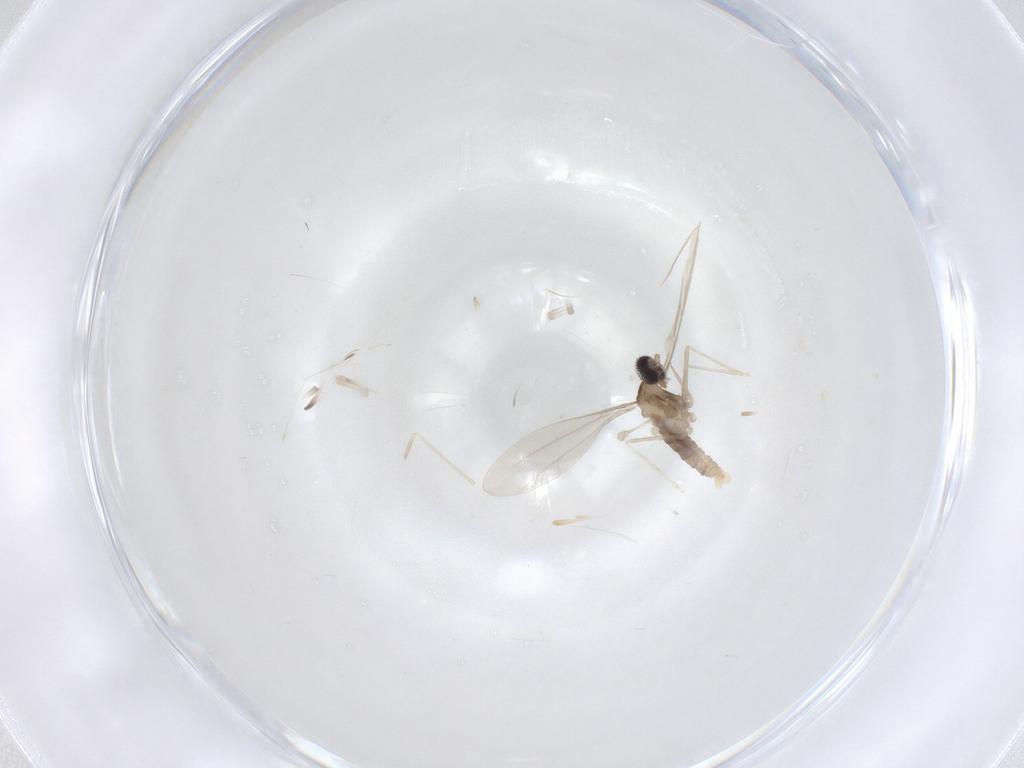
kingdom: Animalia
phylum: Arthropoda
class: Insecta
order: Diptera
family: Cecidomyiidae
